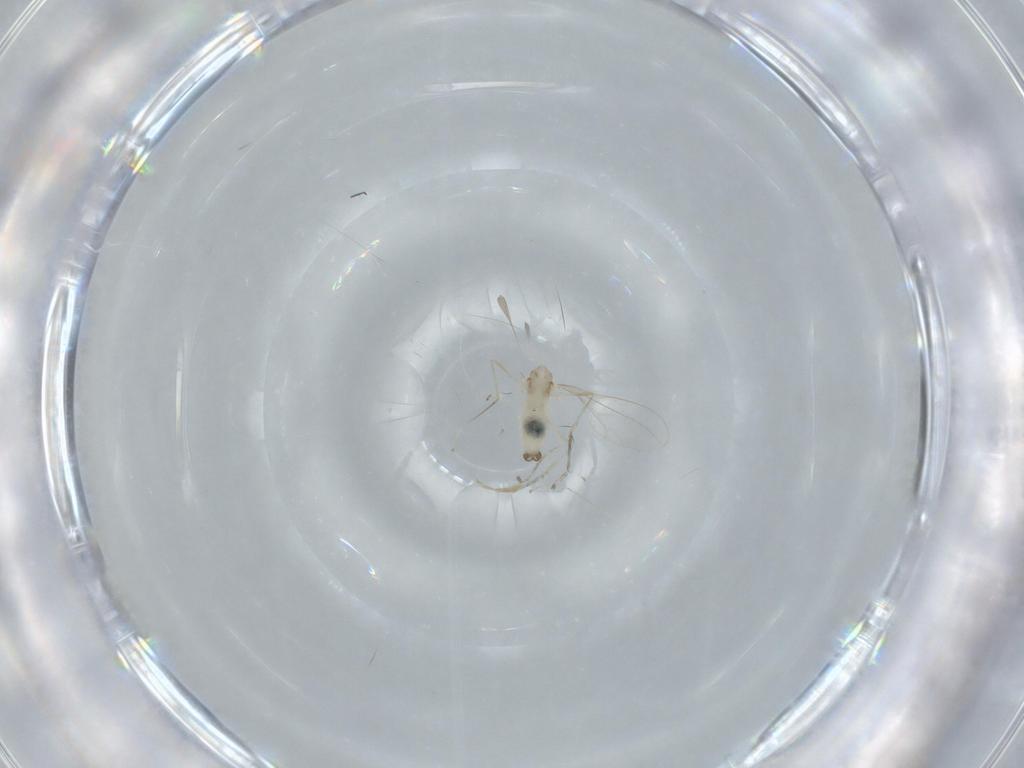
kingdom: Animalia
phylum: Arthropoda
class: Insecta
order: Diptera
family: Cecidomyiidae
